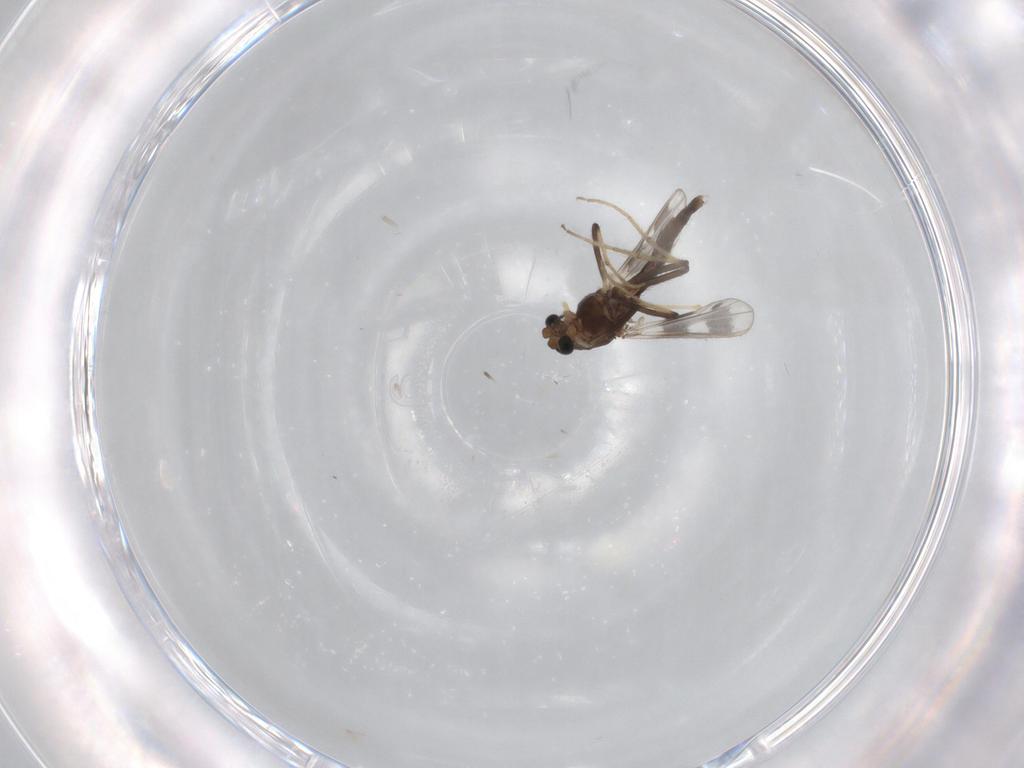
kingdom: Animalia
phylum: Arthropoda
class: Insecta
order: Diptera
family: Chironomidae
